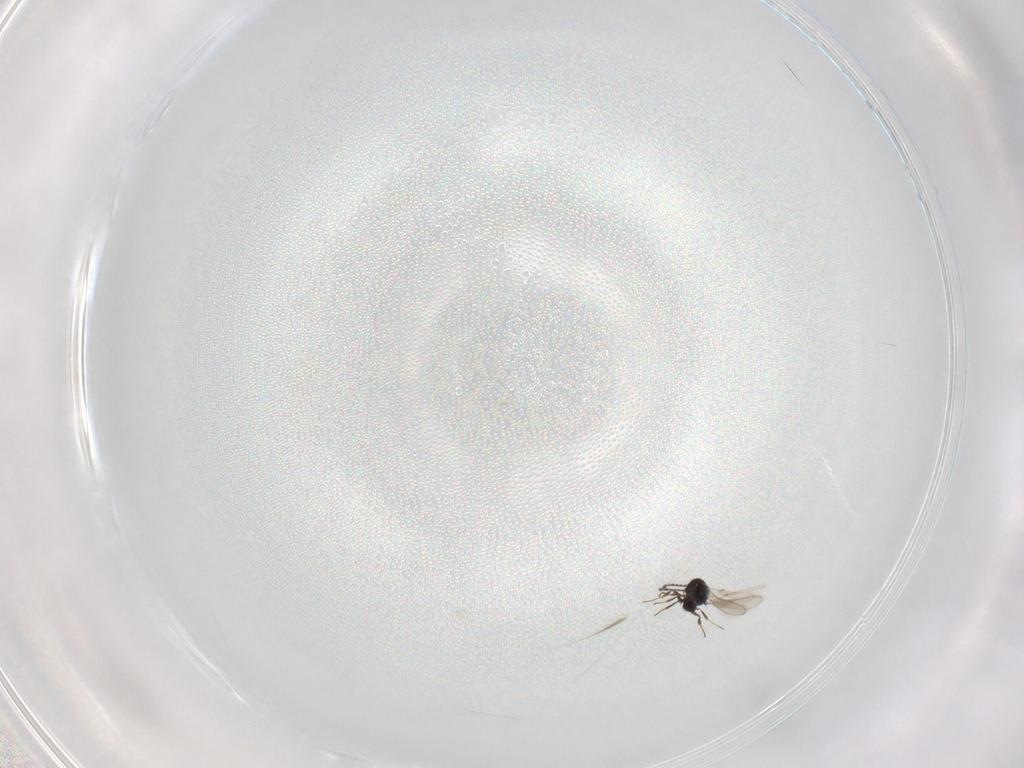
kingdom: Animalia
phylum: Arthropoda
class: Insecta
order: Hymenoptera
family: Scelionidae
